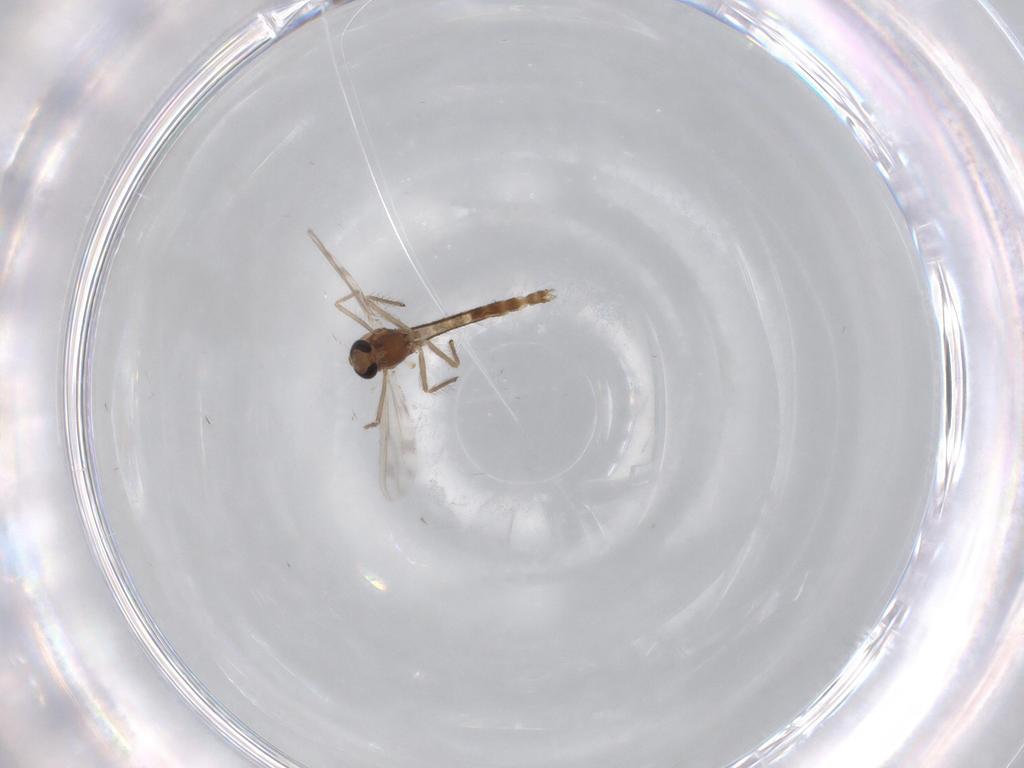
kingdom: Animalia
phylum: Arthropoda
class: Insecta
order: Diptera
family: Chironomidae
